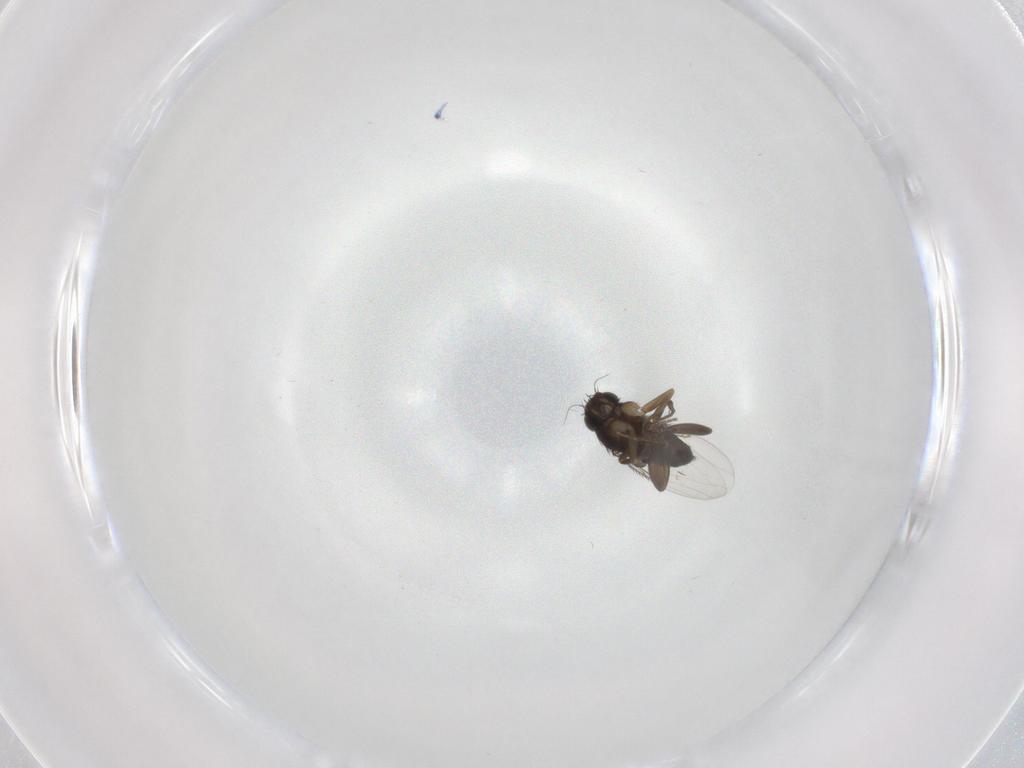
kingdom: Animalia
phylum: Arthropoda
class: Insecta
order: Diptera
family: Phoridae
